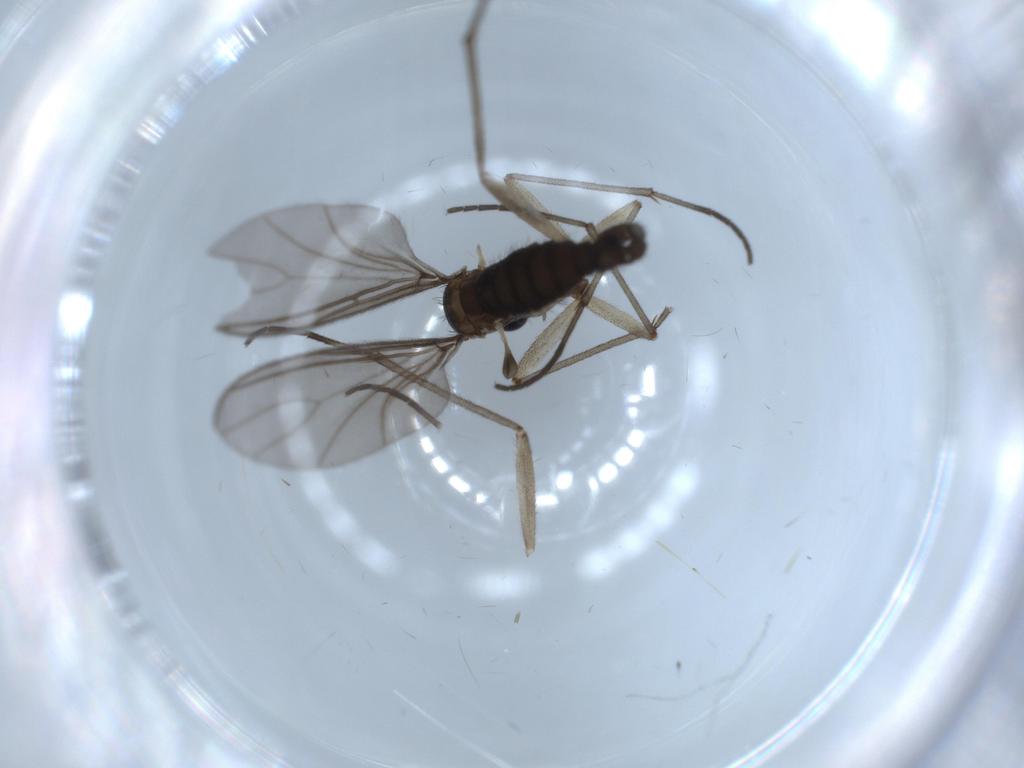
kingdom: Animalia
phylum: Arthropoda
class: Insecta
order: Diptera
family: Sciaridae
